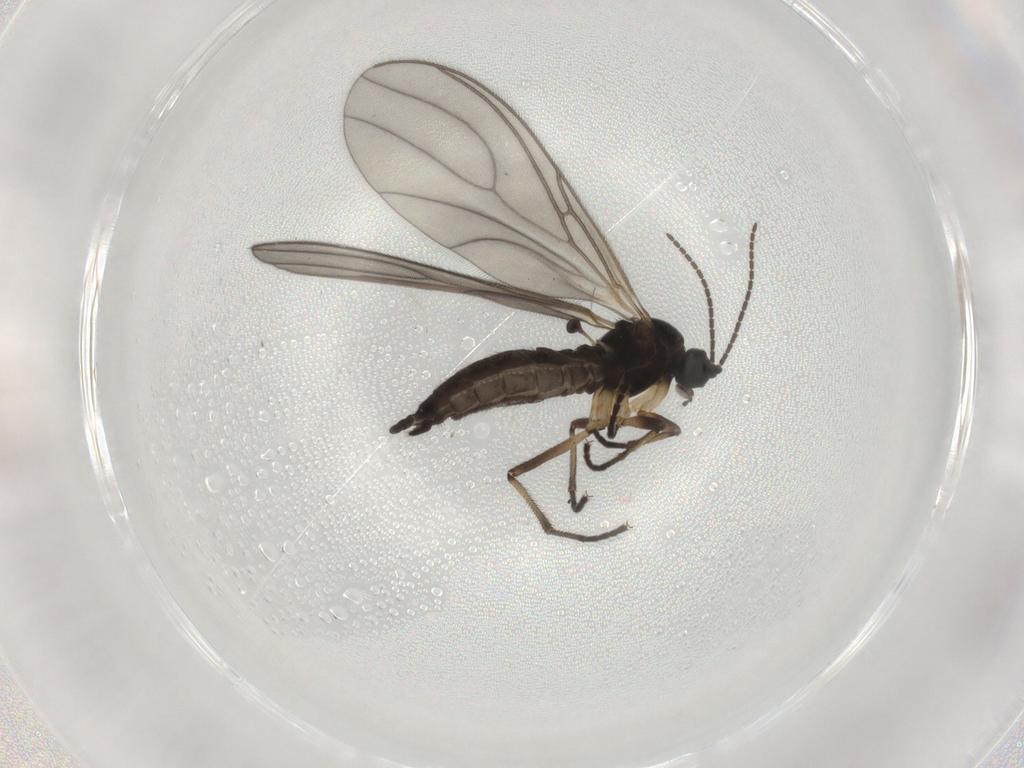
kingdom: Animalia
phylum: Arthropoda
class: Insecta
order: Diptera
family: Sciaridae
